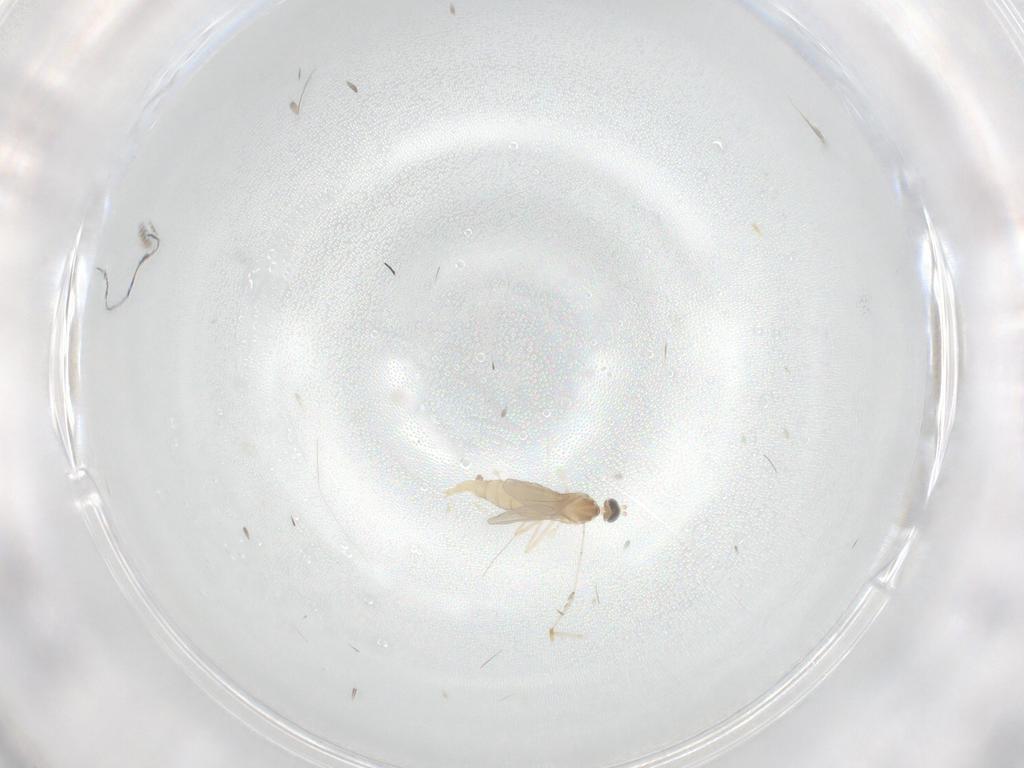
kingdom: Animalia
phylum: Arthropoda
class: Insecta
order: Diptera
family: Cecidomyiidae
